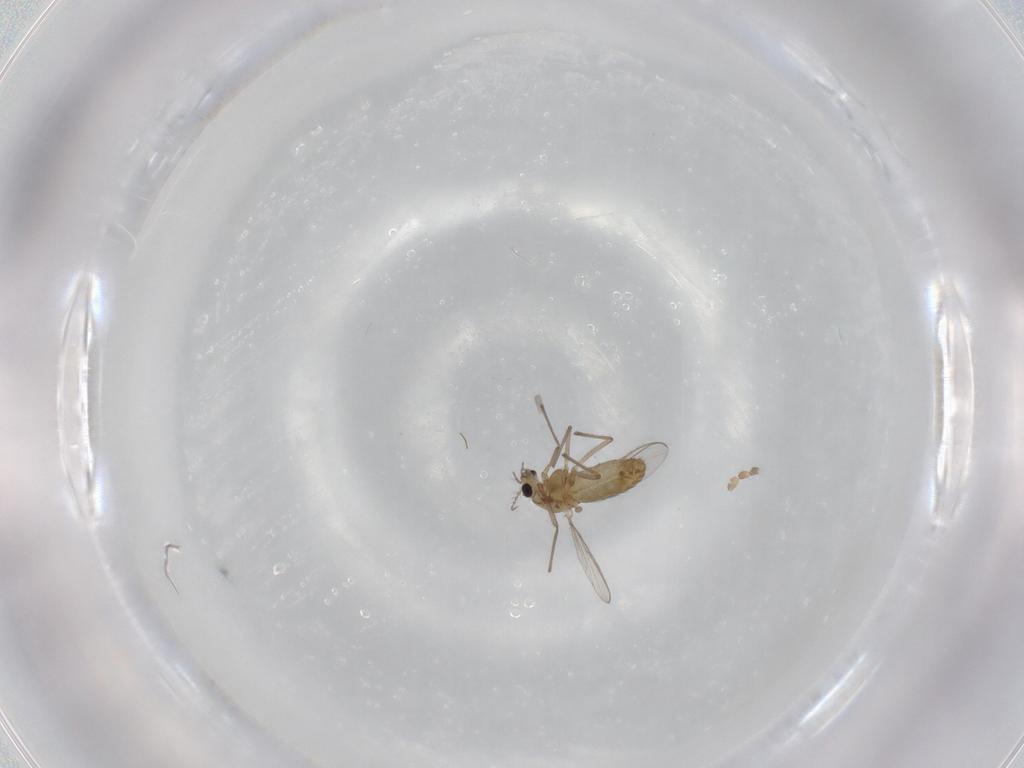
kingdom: Animalia
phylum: Arthropoda
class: Insecta
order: Diptera
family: Chironomidae
